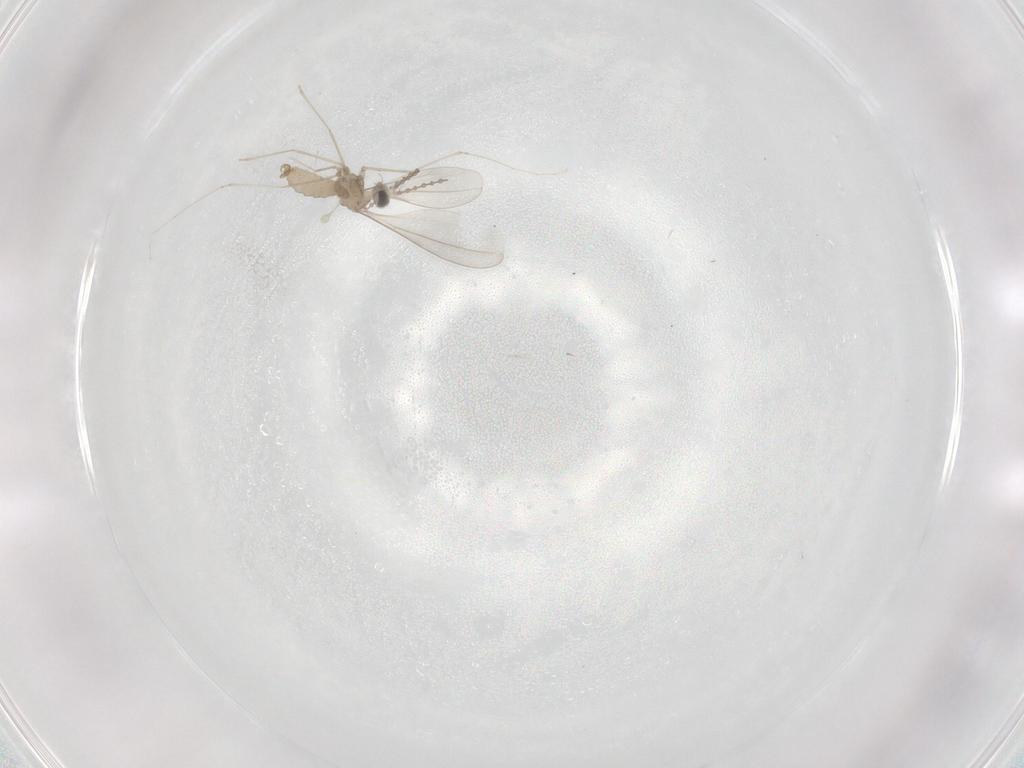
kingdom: Animalia
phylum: Arthropoda
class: Insecta
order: Diptera
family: Cecidomyiidae
